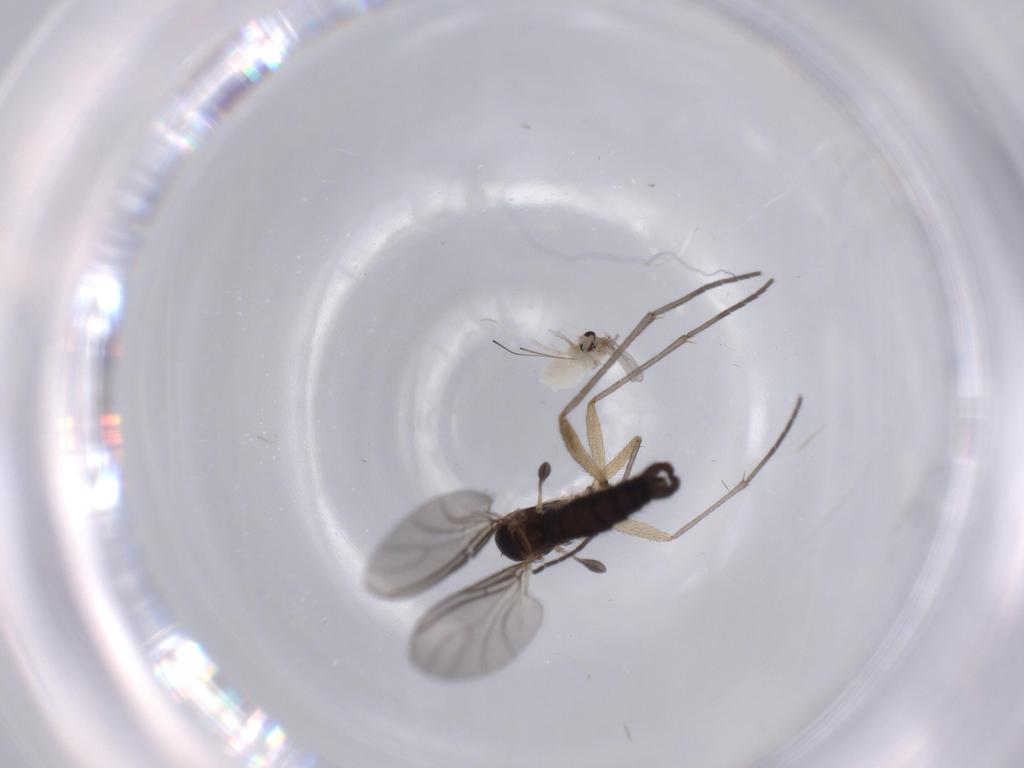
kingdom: Animalia
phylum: Arthropoda
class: Insecta
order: Diptera
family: Cecidomyiidae
